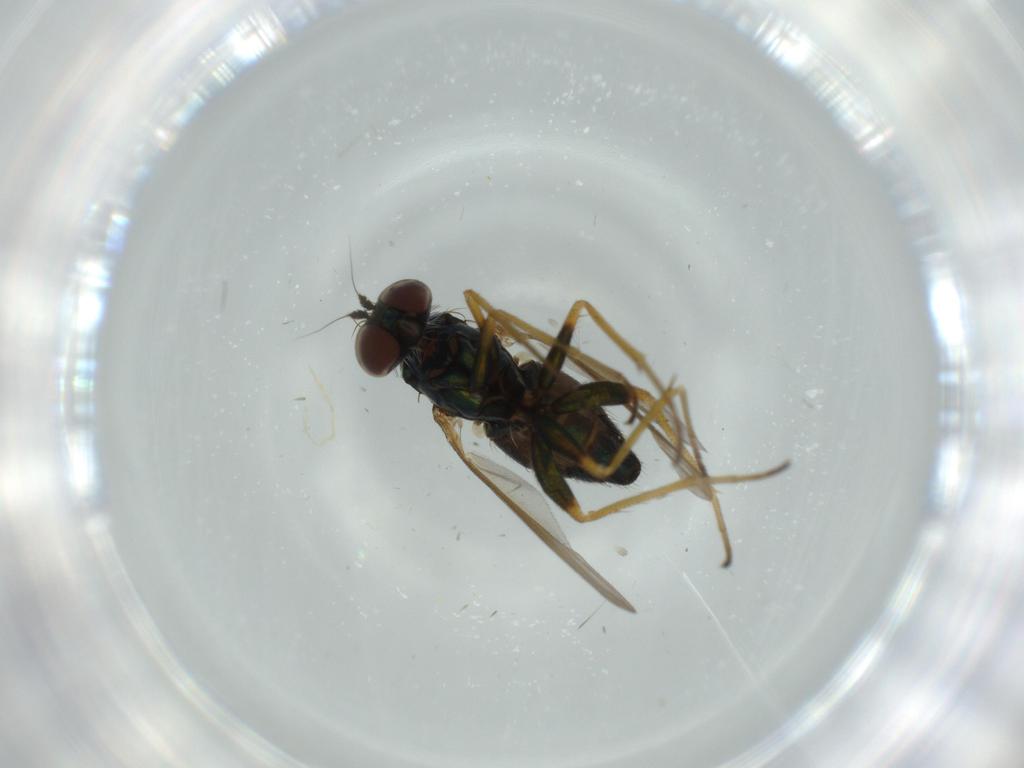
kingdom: Animalia
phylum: Arthropoda
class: Insecta
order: Diptera
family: Dolichopodidae
